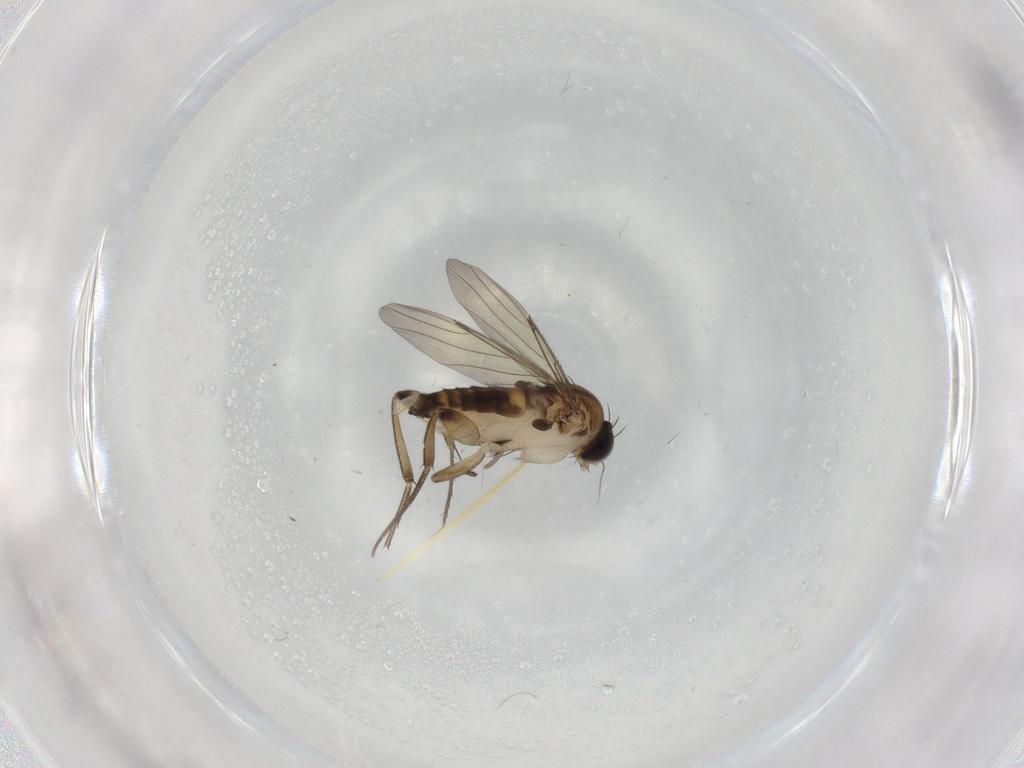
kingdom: Animalia
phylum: Arthropoda
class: Insecta
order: Diptera
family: Phoridae
